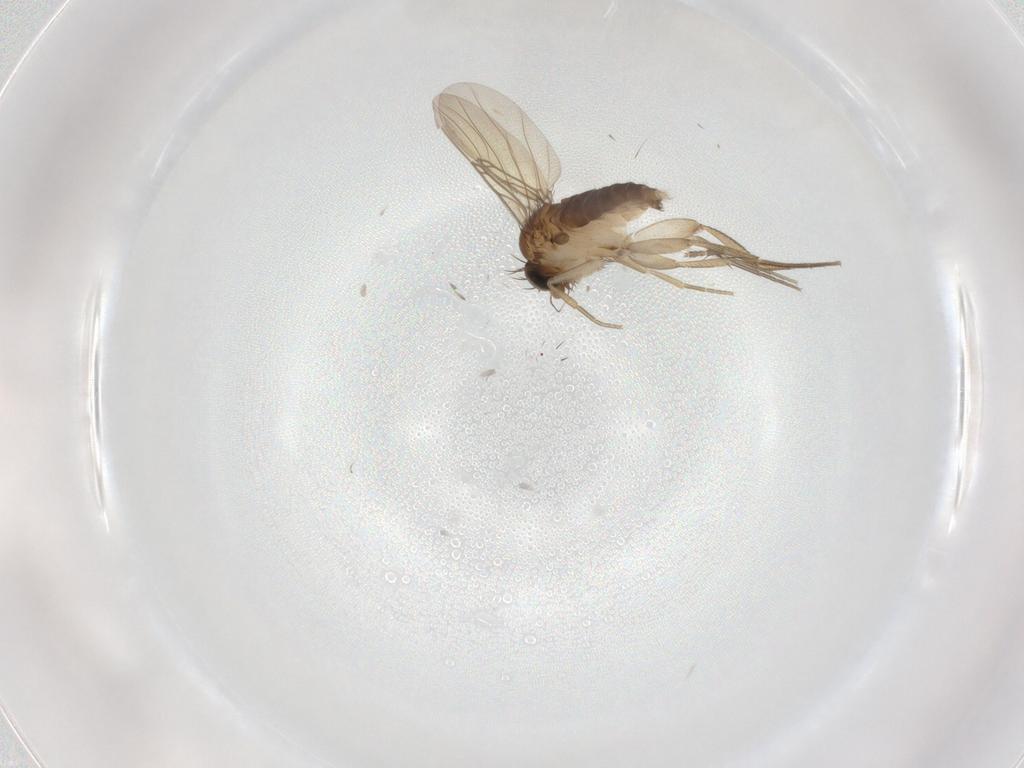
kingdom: Animalia
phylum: Arthropoda
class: Insecta
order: Diptera
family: Phoridae
